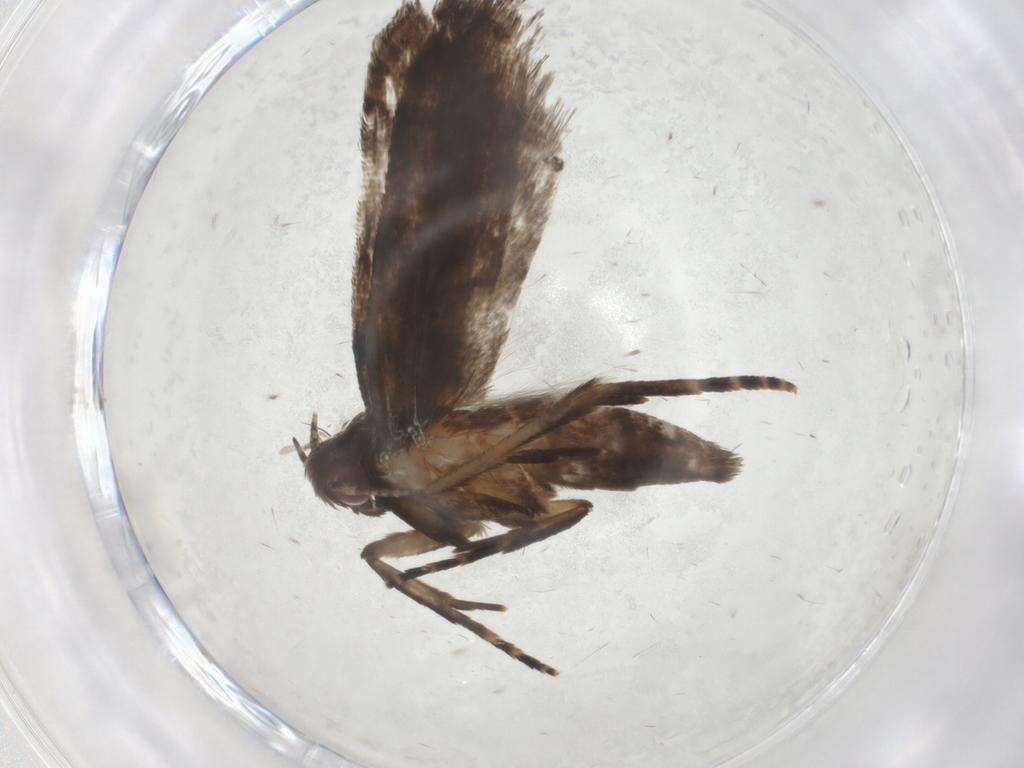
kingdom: Animalia
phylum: Arthropoda
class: Insecta
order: Lepidoptera
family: Gelechiidae
